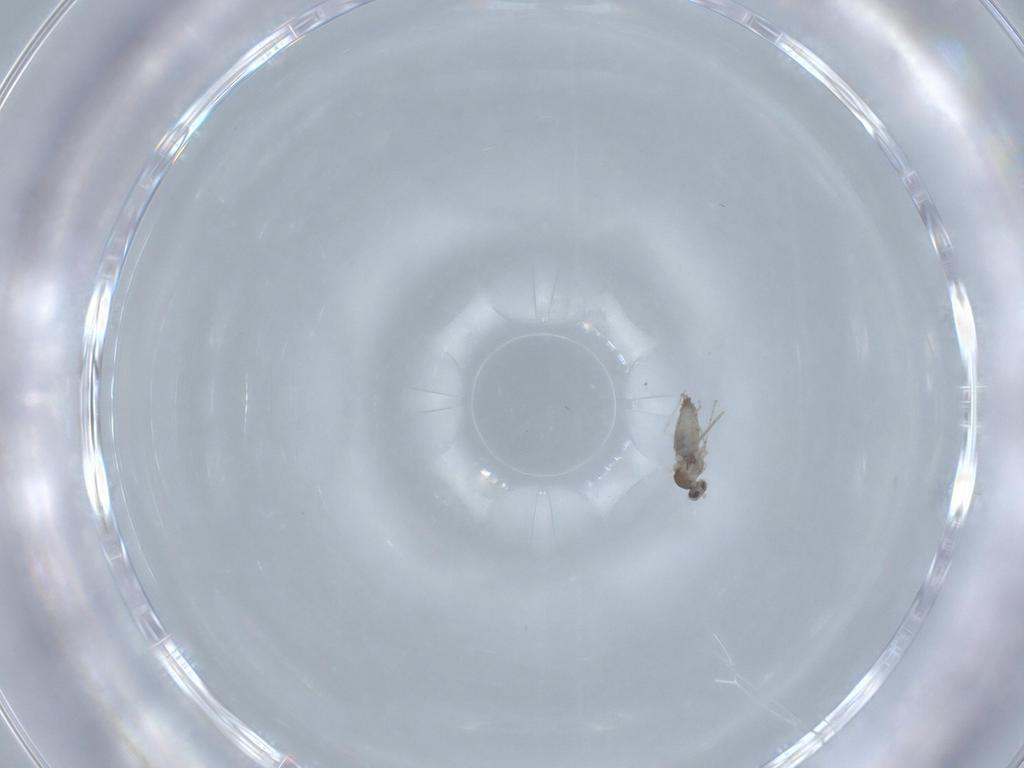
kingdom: Animalia
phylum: Arthropoda
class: Insecta
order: Diptera
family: Cecidomyiidae
